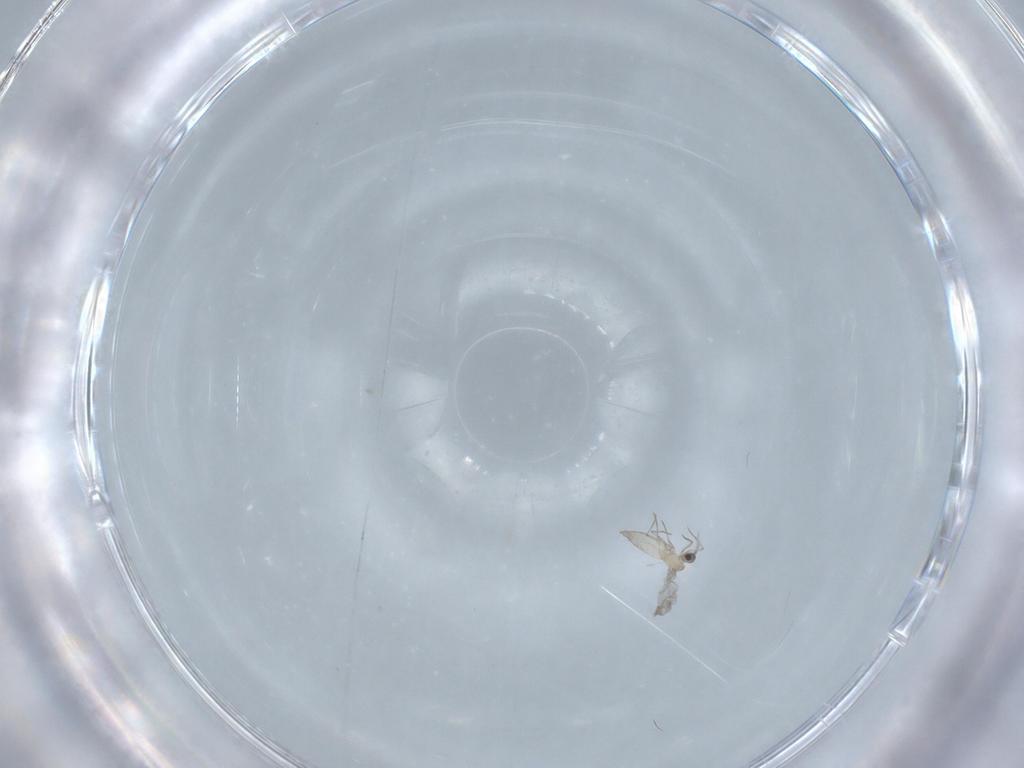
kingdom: Animalia
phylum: Arthropoda
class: Insecta
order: Diptera
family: Cecidomyiidae
